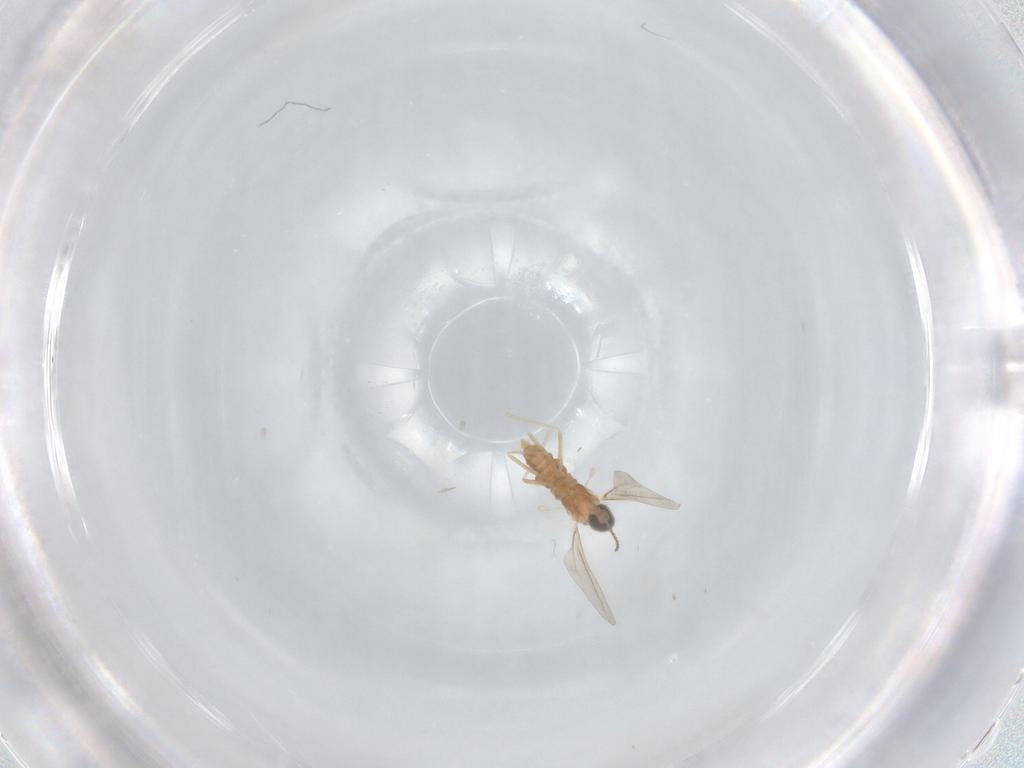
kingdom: Animalia
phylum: Arthropoda
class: Insecta
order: Diptera
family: Cecidomyiidae
